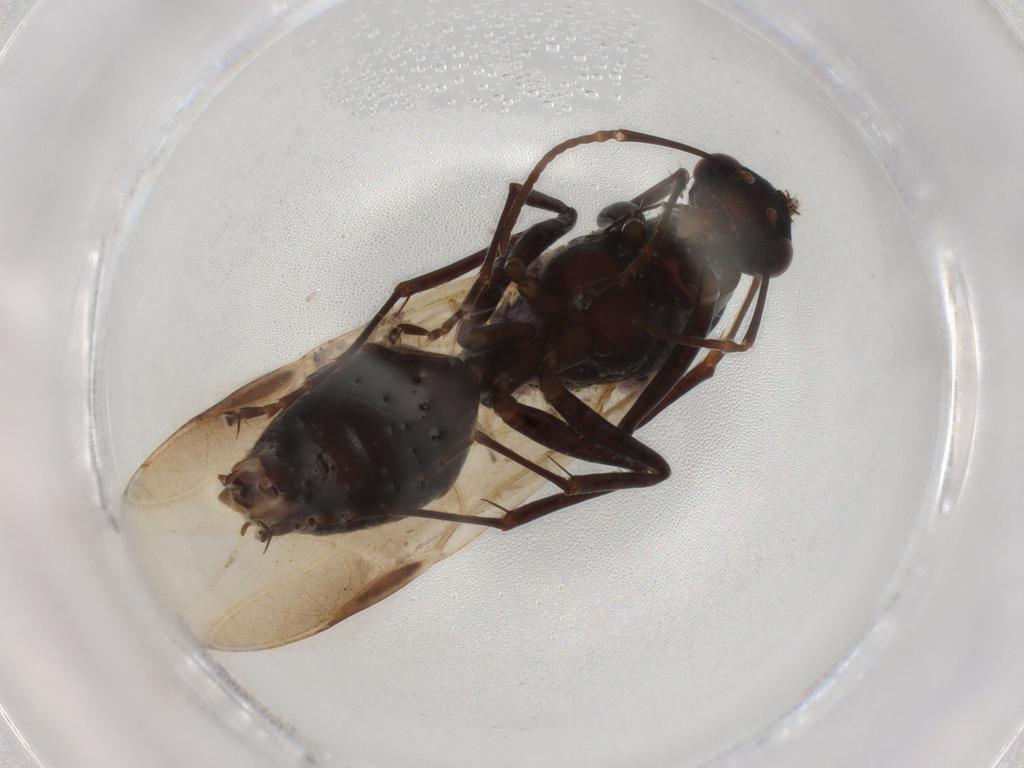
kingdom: Animalia
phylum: Arthropoda
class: Insecta
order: Hymenoptera
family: Formicidae
